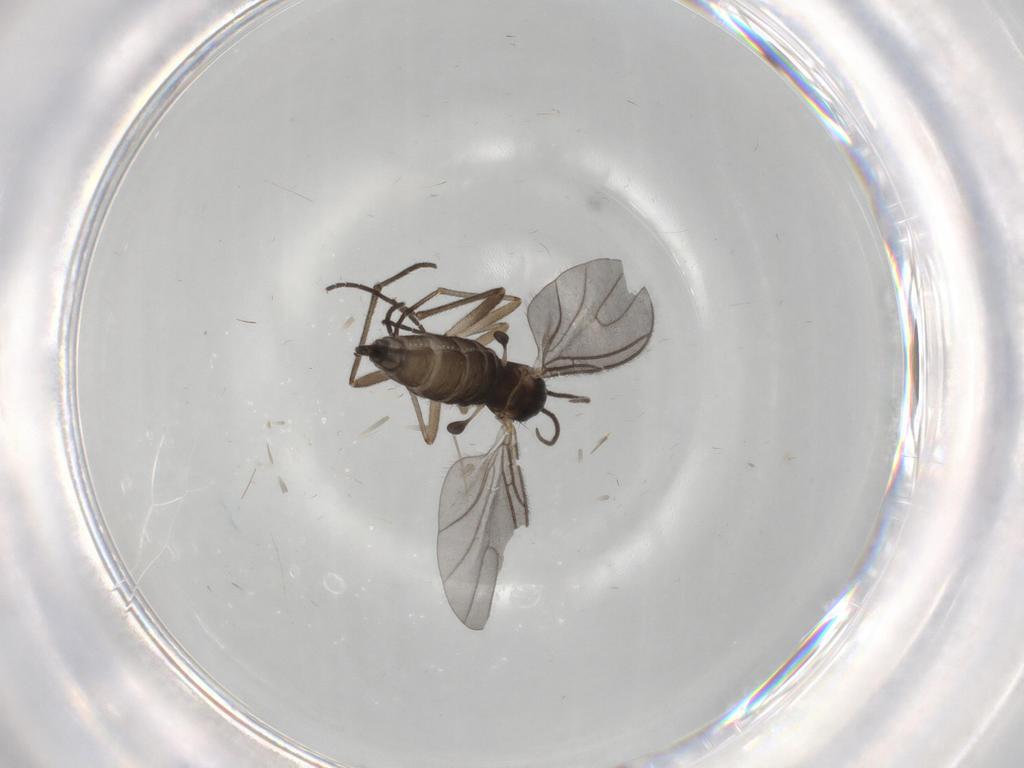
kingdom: Animalia
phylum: Arthropoda
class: Insecta
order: Diptera
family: Sciaridae
